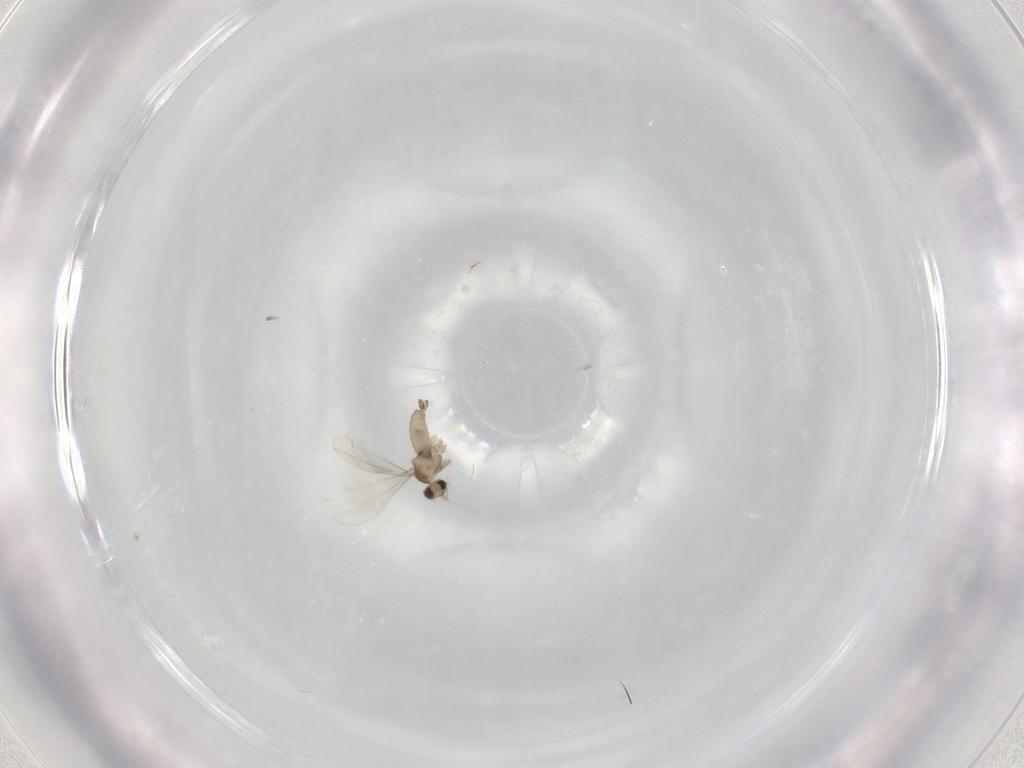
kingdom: Animalia
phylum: Arthropoda
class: Insecta
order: Diptera
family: Cecidomyiidae
